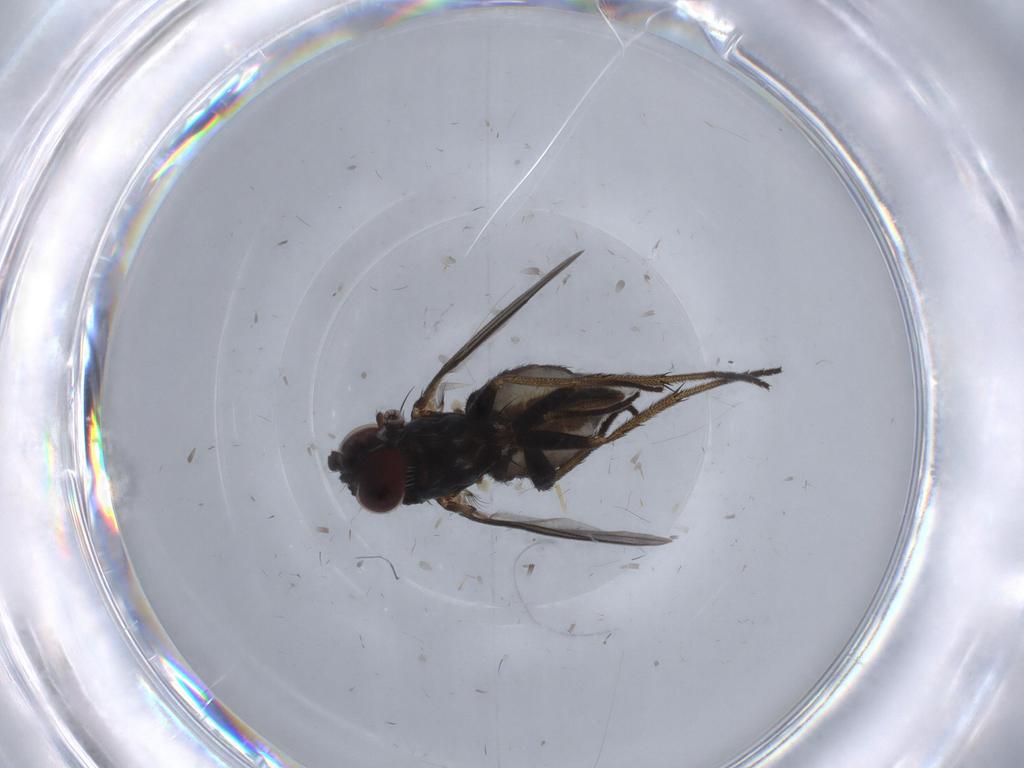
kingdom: Animalia
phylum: Arthropoda
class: Insecta
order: Diptera
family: Dolichopodidae
